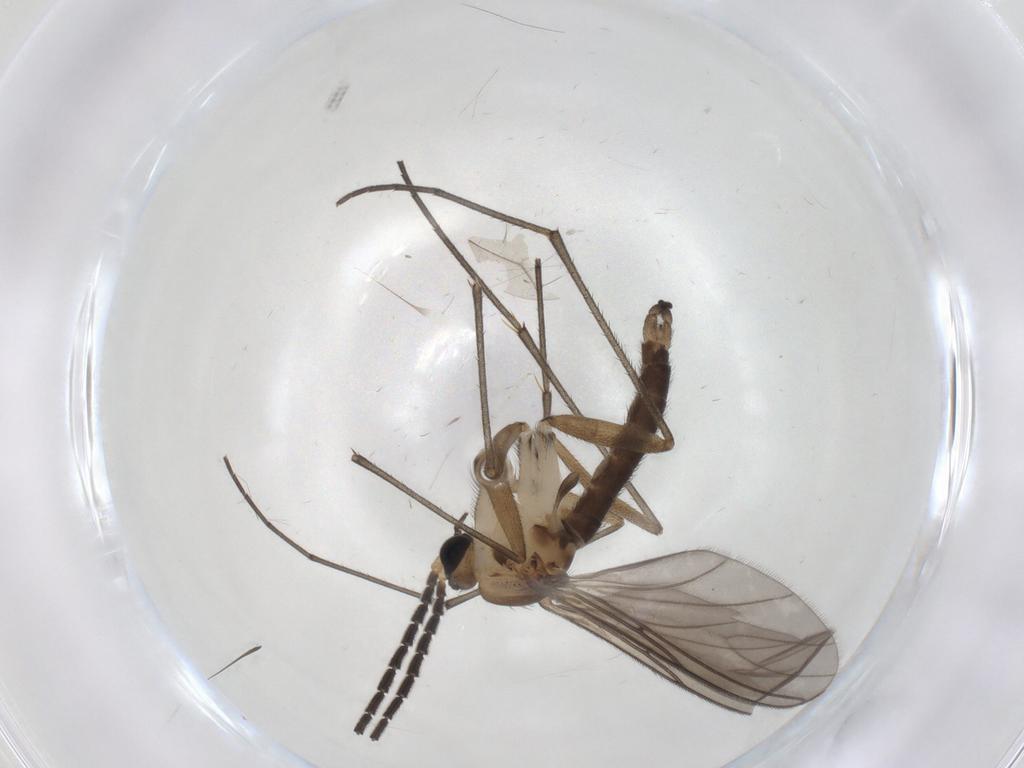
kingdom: Animalia
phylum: Arthropoda
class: Insecta
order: Diptera
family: Sciaridae
